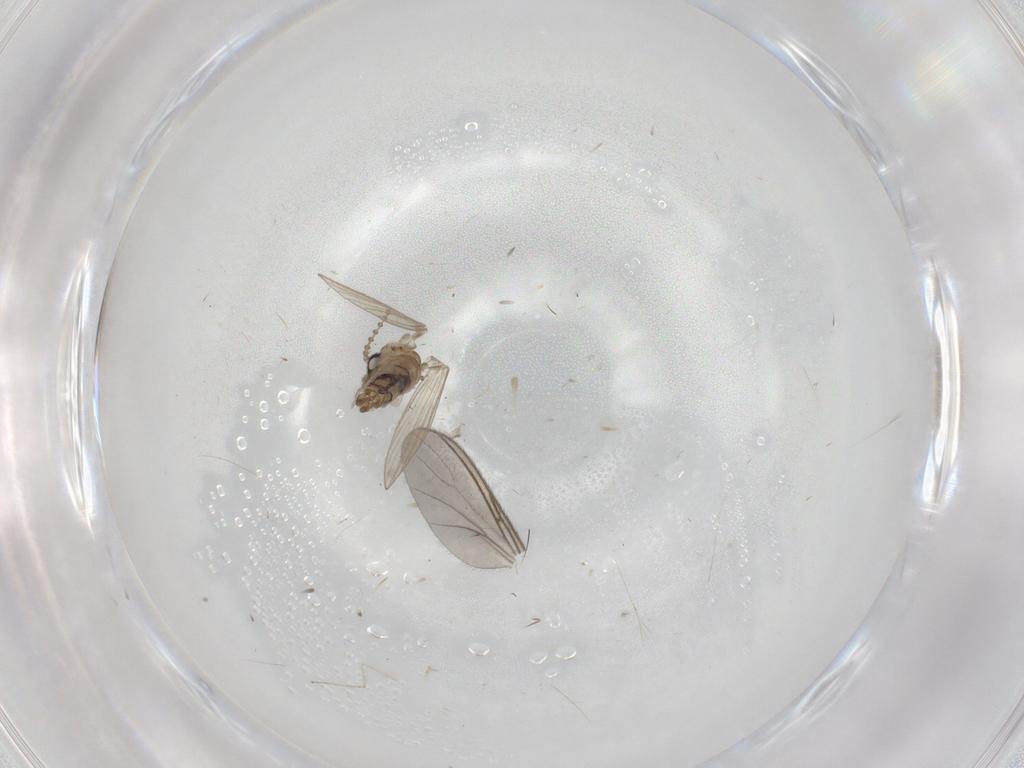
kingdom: Animalia
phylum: Arthropoda
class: Insecta
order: Diptera
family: Psychodidae
